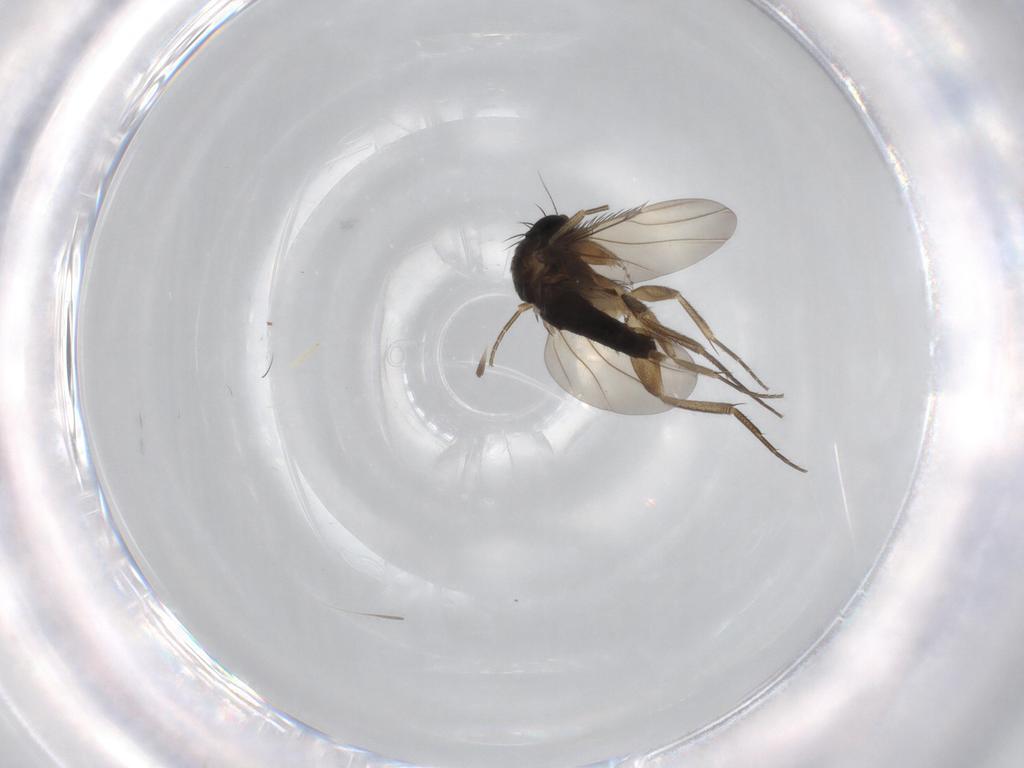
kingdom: Animalia
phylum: Arthropoda
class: Insecta
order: Diptera
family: Phoridae
